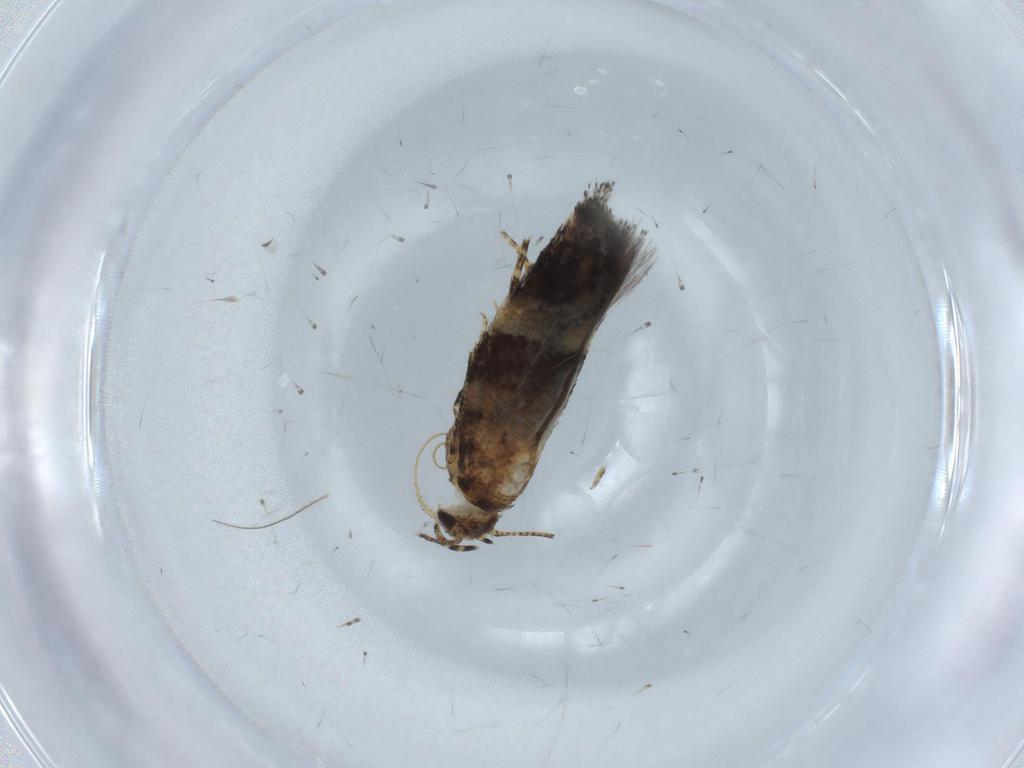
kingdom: Animalia
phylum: Arthropoda
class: Insecta
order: Lepidoptera
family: Gelechiidae
